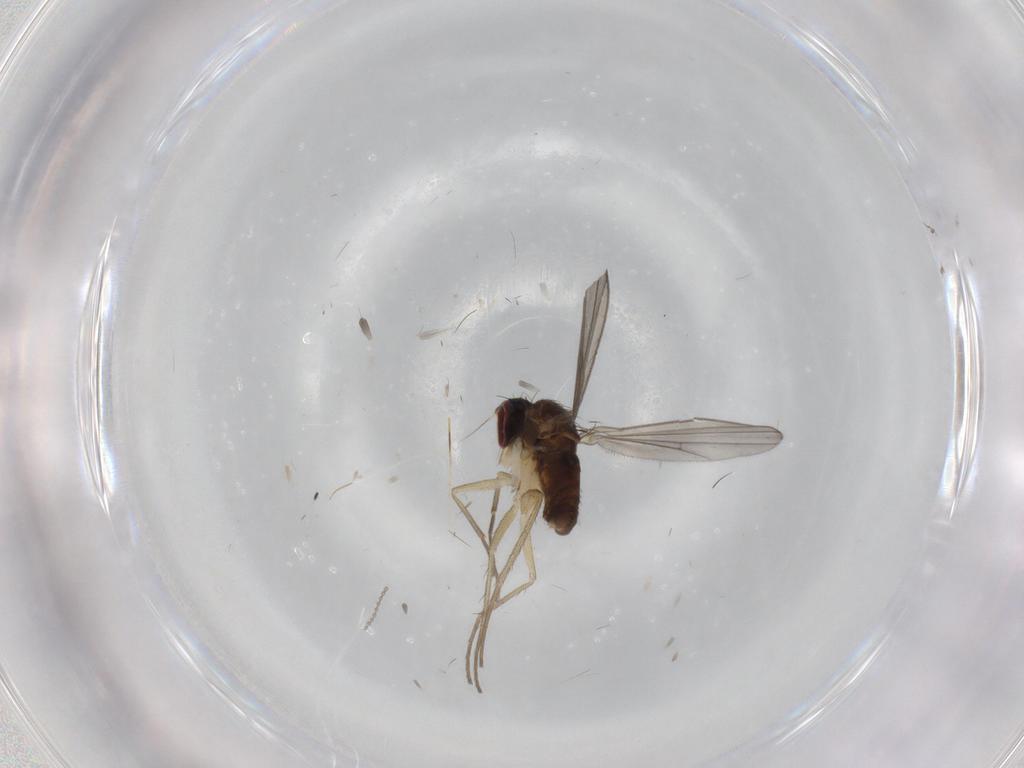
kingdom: Animalia
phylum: Arthropoda
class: Insecta
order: Diptera
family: Dolichopodidae
